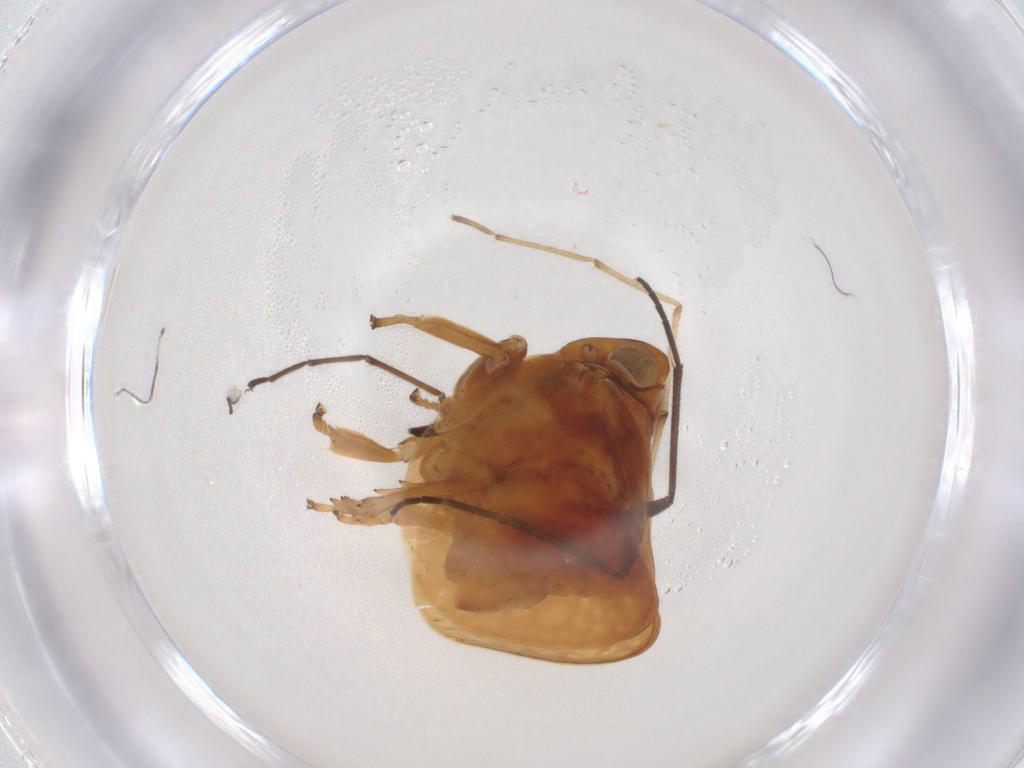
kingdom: Animalia
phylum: Arthropoda
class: Insecta
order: Hemiptera
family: Nogodinidae
